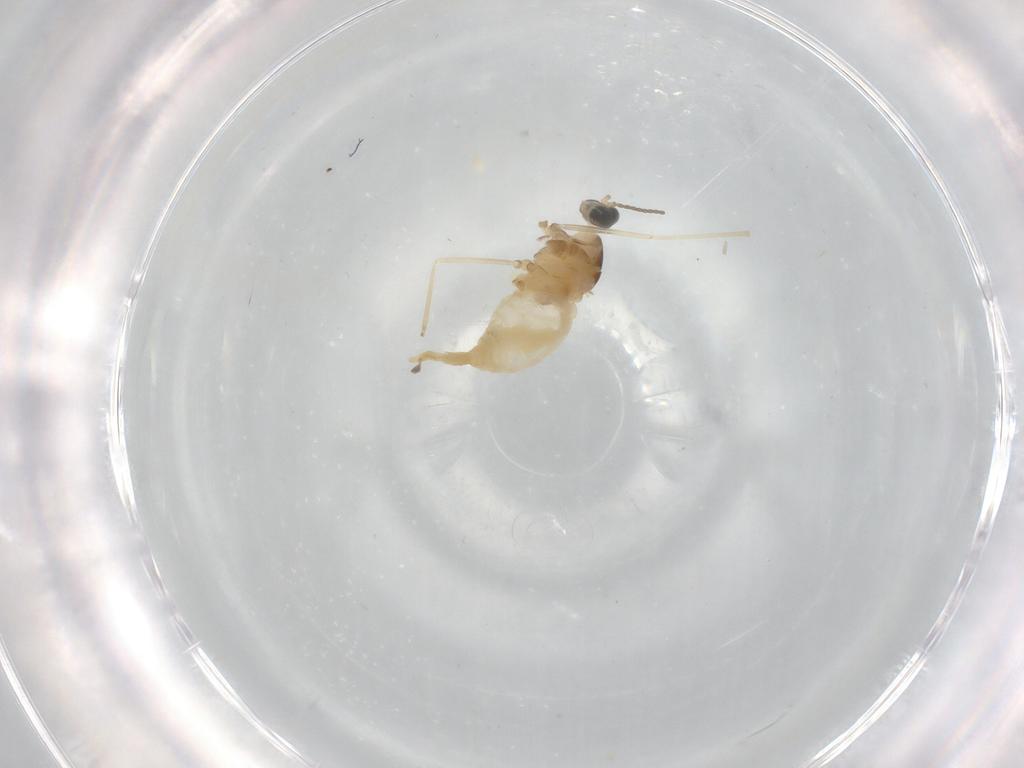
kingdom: Animalia
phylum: Arthropoda
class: Insecta
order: Diptera
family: Cecidomyiidae
